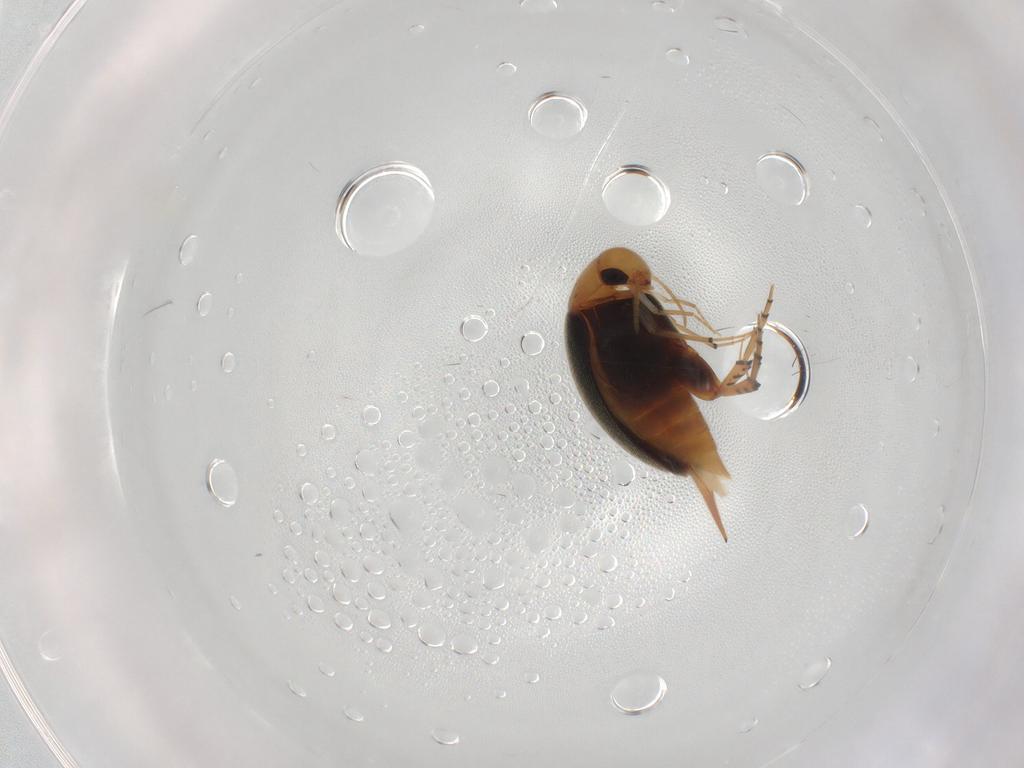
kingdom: Animalia
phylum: Arthropoda
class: Insecta
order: Coleoptera
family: Mordellidae
